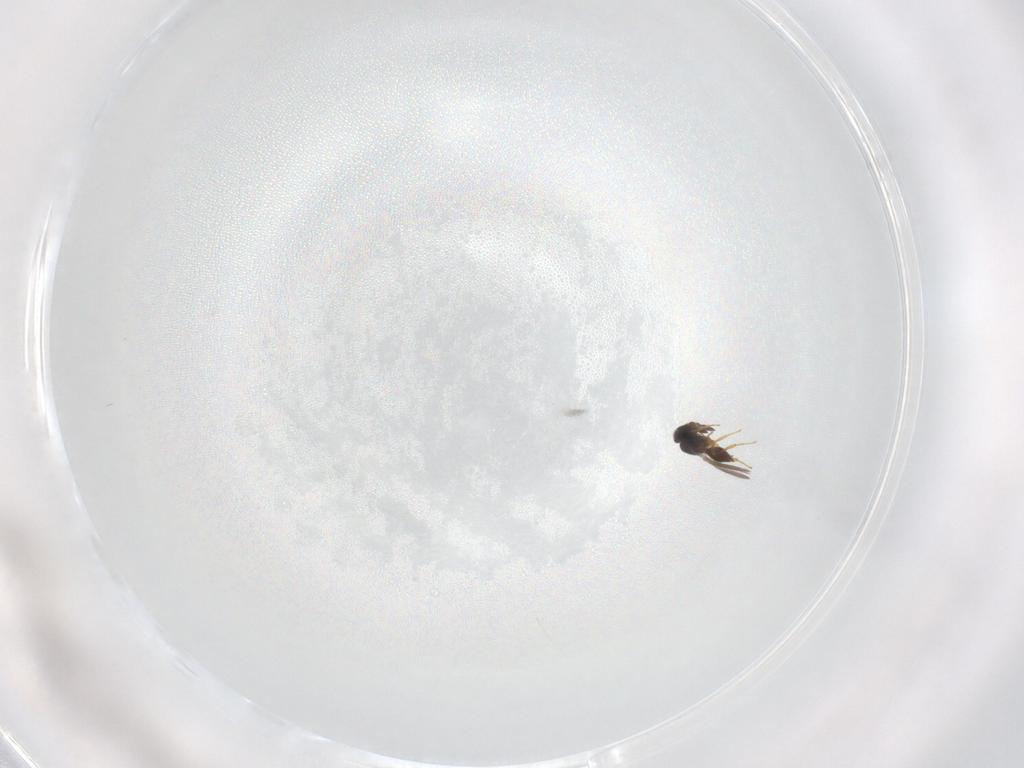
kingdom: Animalia
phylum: Arthropoda
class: Insecta
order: Hymenoptera
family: Platygastridae
